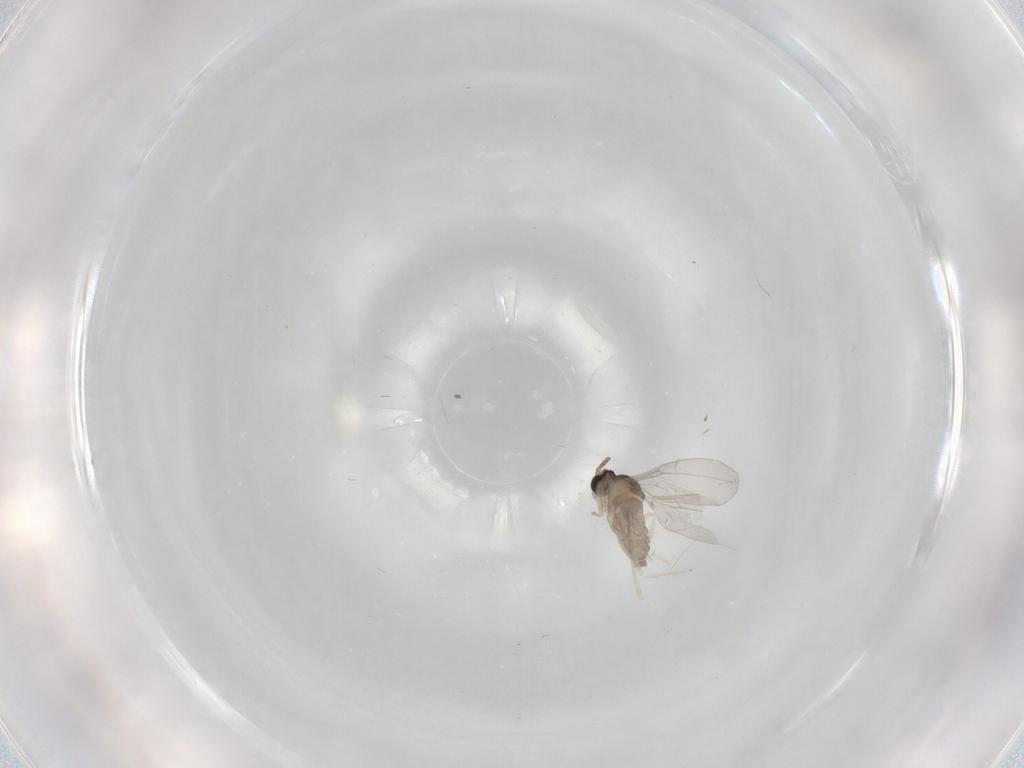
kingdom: Animalia
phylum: Arthropoda
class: Insecta
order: Diptera
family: Cecidomyiidae
